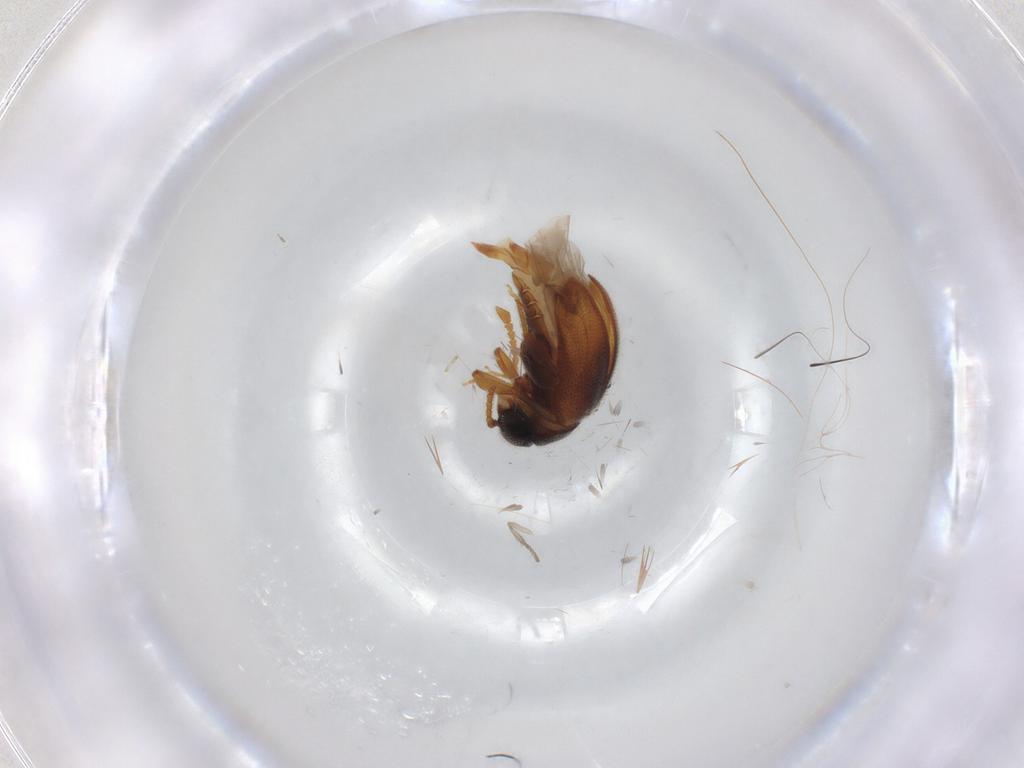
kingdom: Animalia
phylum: Arthropoda
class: Insecta
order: Coleoptera
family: Aderidae
